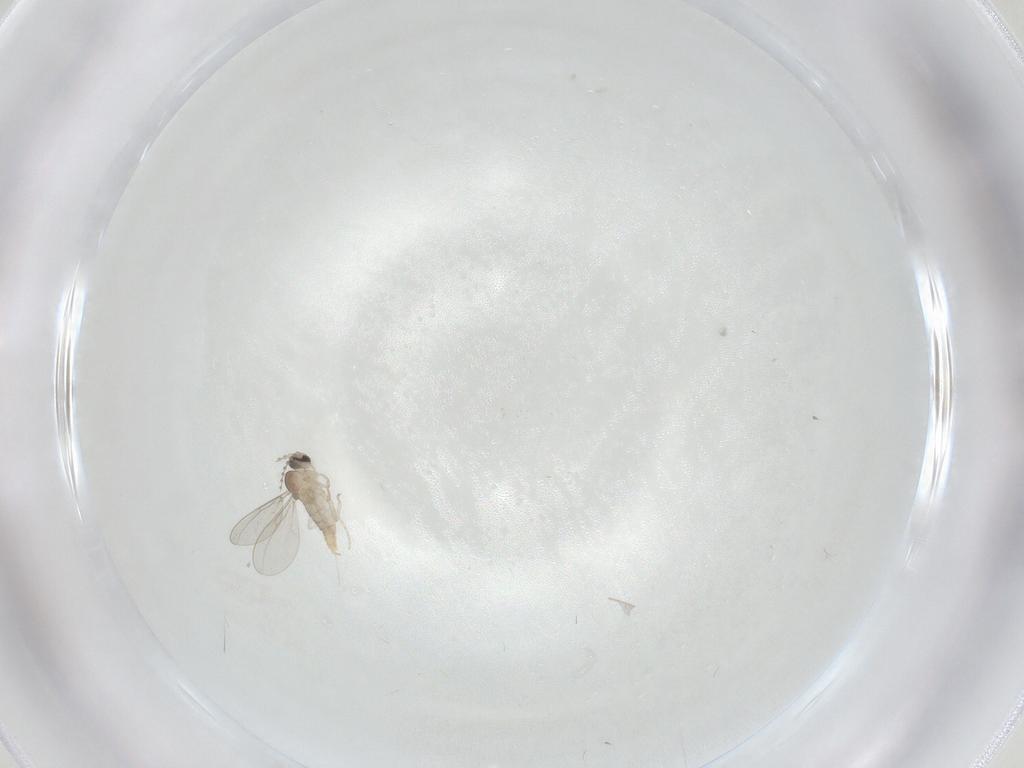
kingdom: Animalia
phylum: Arthropoda
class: Insecta
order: Diptera
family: Cecidomyiidae
